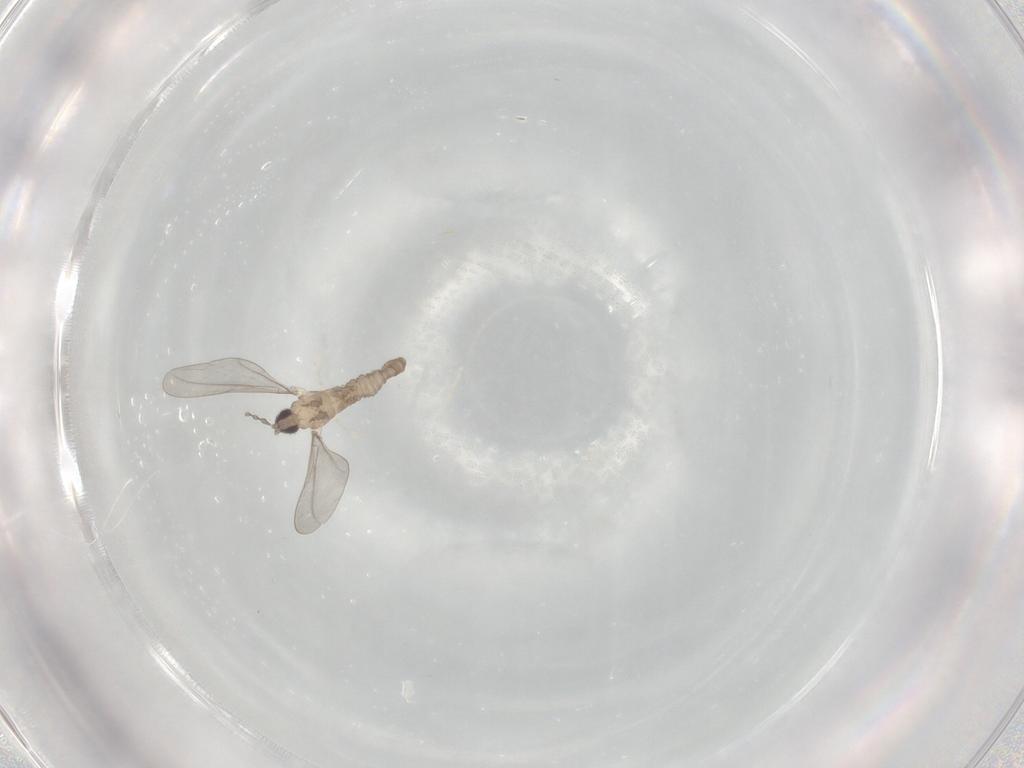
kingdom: Animalia
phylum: Arthropoda
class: Insecta
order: Diptera
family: Cecidomyiidae
